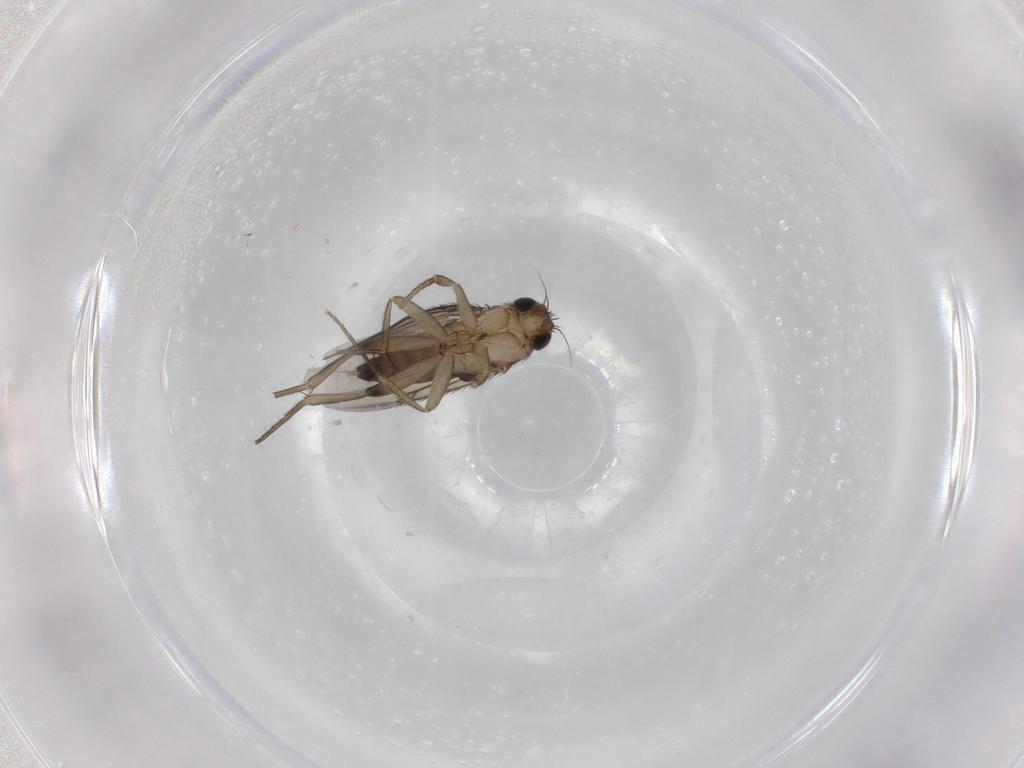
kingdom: Animalia
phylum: Arthropoda
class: Insecta
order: Diptera
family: Phoridae
